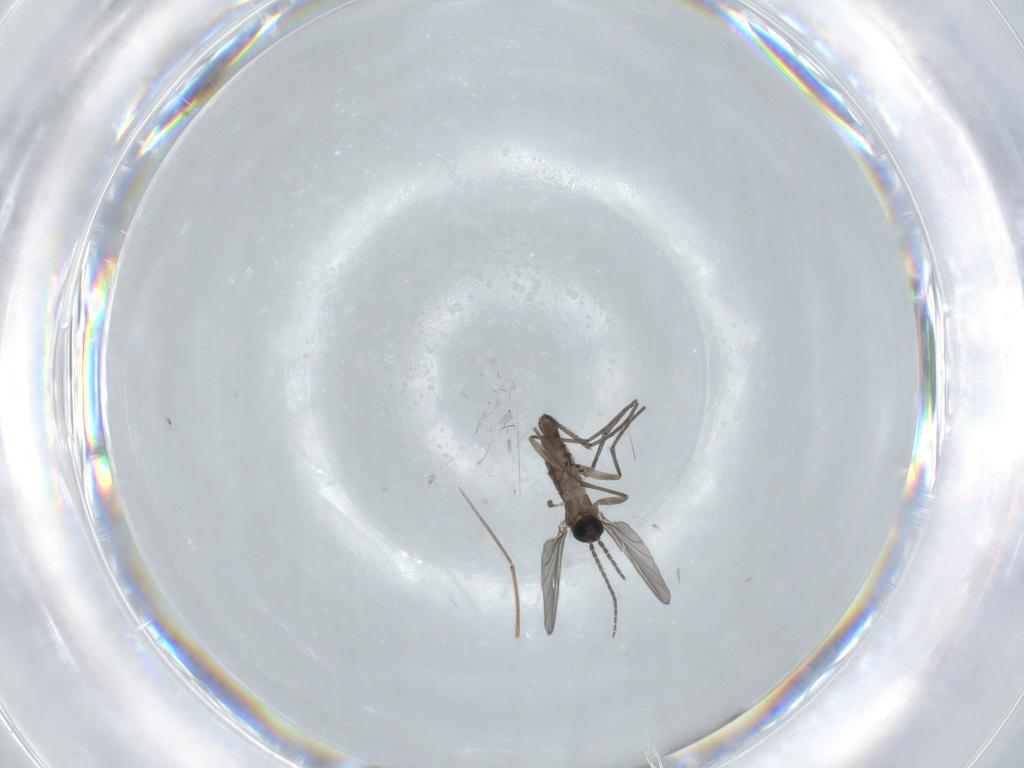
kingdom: Animalia
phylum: Arthropoda
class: Insecta
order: Diptera
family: Sciaridae
